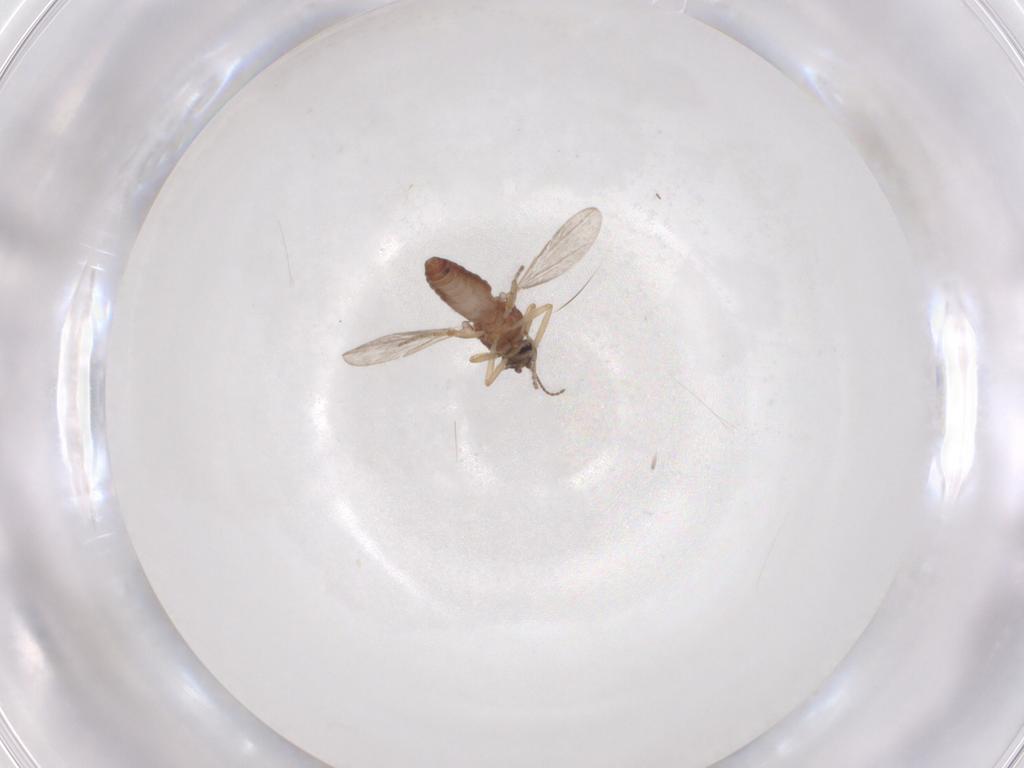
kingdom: Animalia
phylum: Arthropoda
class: Insecta
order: Diptera
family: Ceratopogonidae
